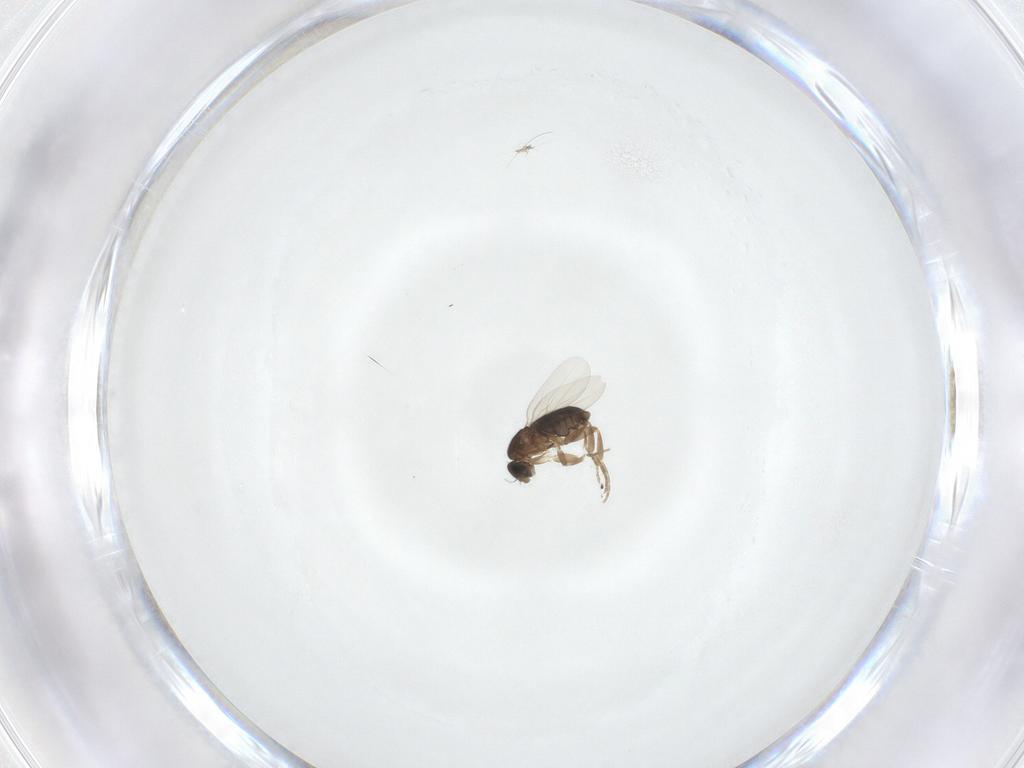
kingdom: Animalia
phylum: Arthropoda
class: Insecta
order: Diptera
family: Phoridae
